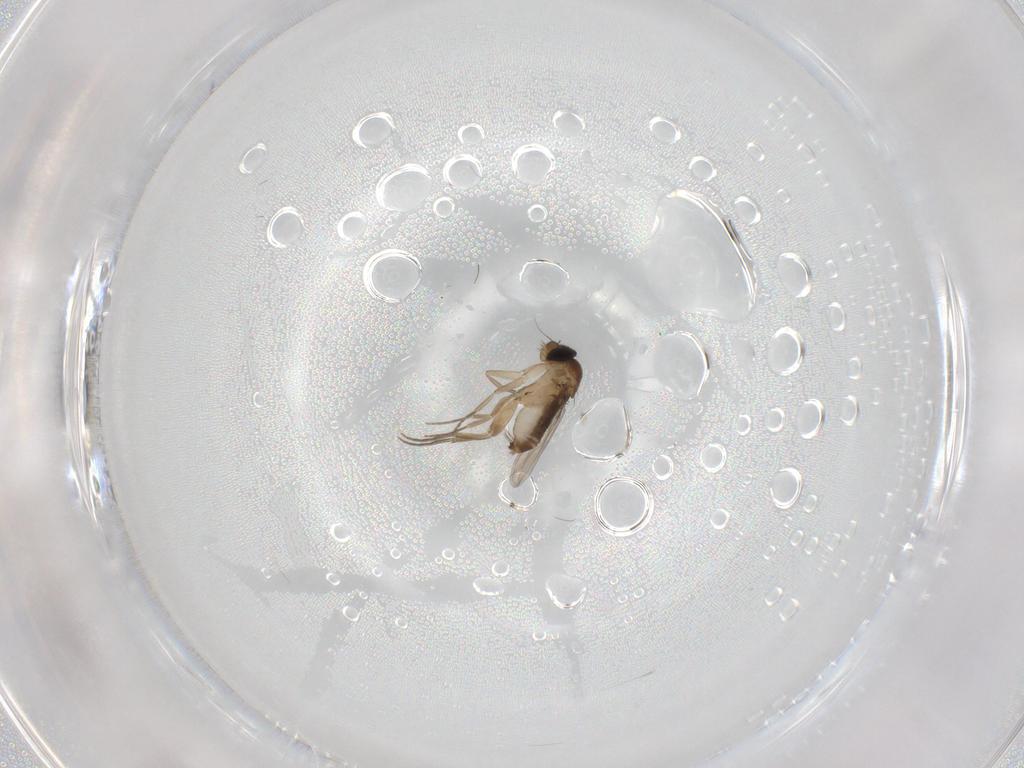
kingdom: Animalia
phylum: Arthropoda
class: Insecta
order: Diptera
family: Phoridae
